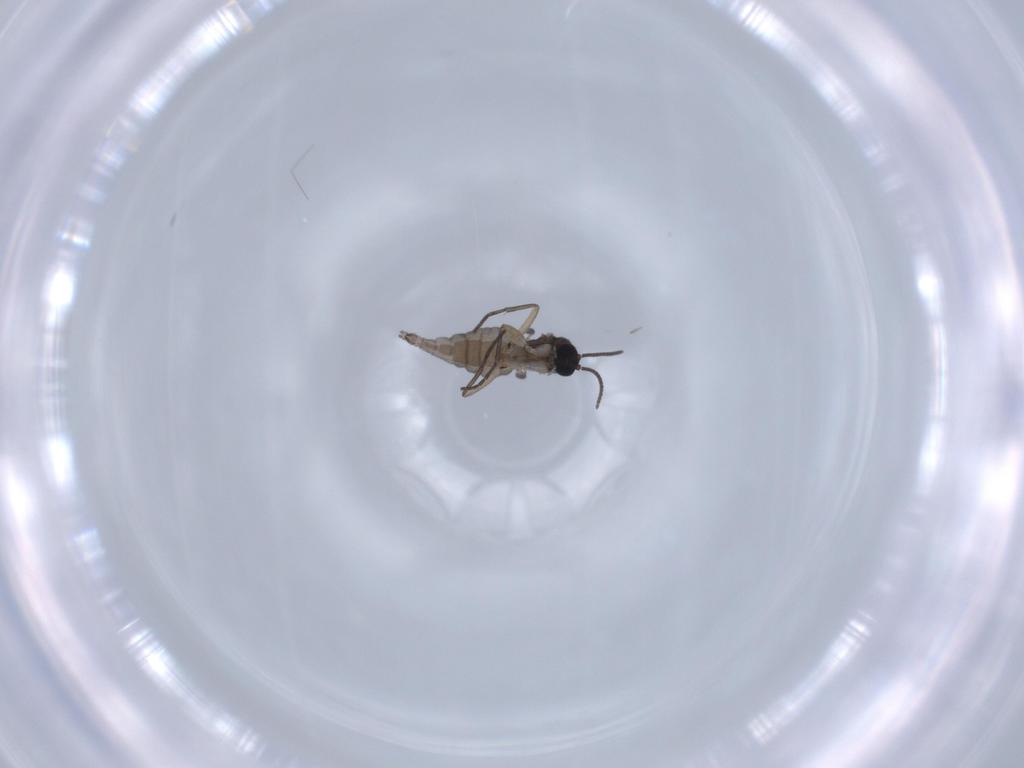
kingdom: Animalia
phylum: Arthropoda
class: Insecta
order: Diptera
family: Sciaridae
